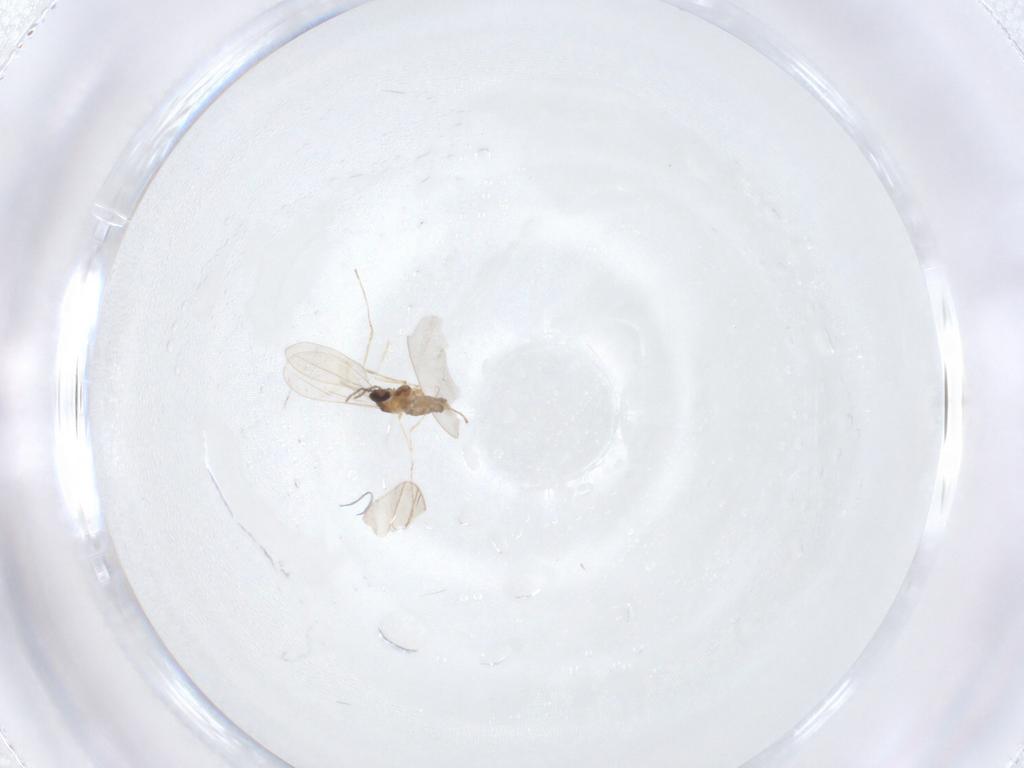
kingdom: Animalia
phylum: Arthropoda
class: Insecta
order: Diptera
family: Cecidomyiidae
